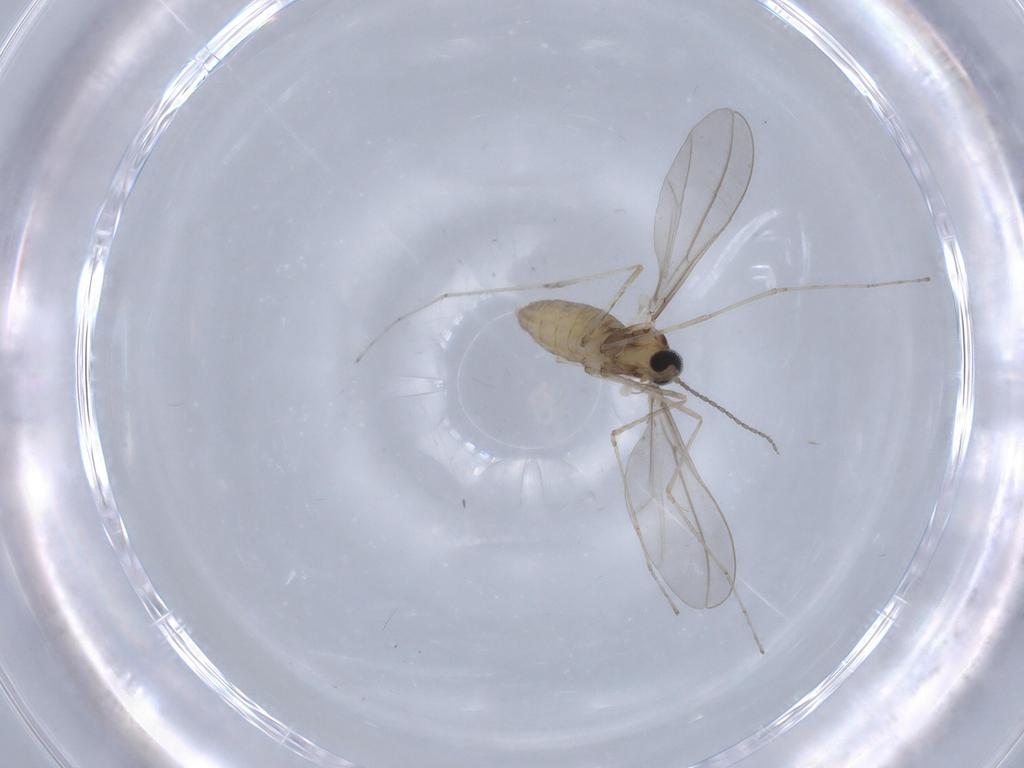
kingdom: Animalia
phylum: Arthropoda
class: Insecta
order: Diptera
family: Cecidomyiidae
